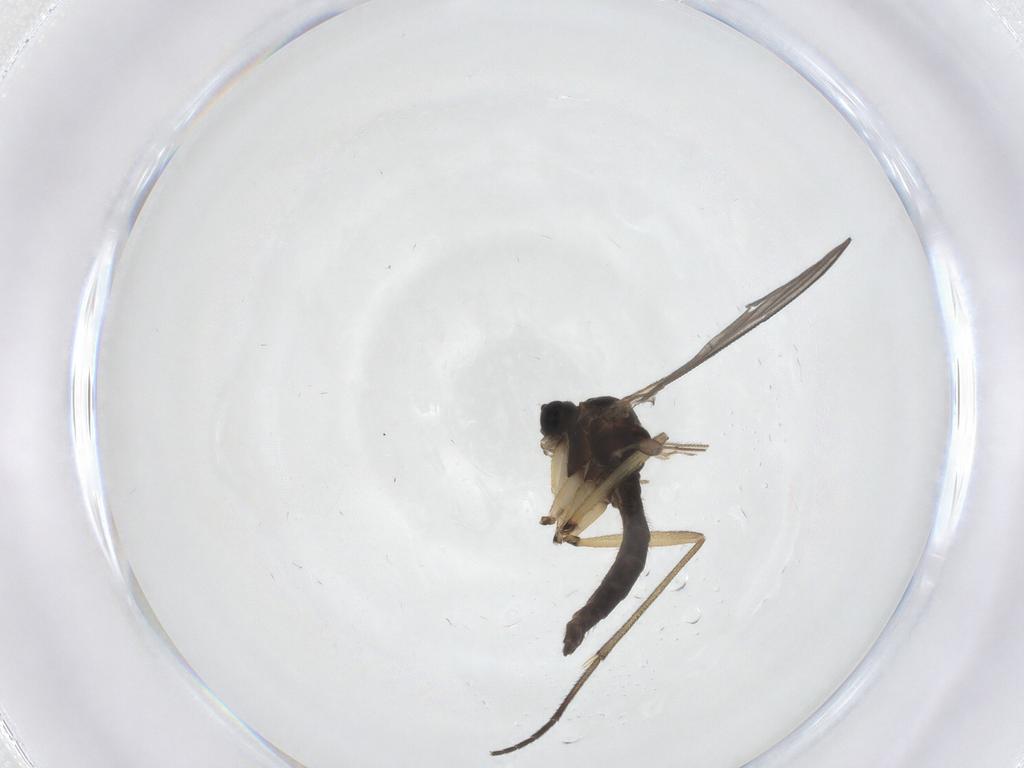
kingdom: Animalia
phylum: Arthropoda
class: Insecta
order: Diptera
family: Sciaridae
